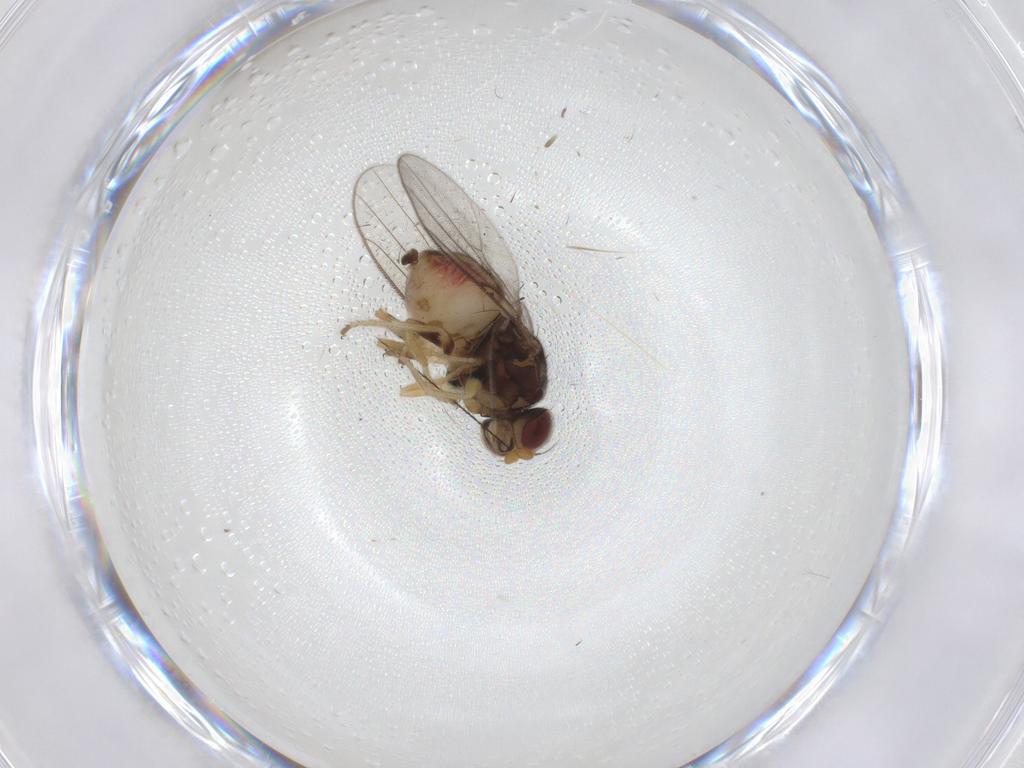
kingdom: Animalia
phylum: Arthropoda
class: Insecta
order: Diptera
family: Chloropidae
